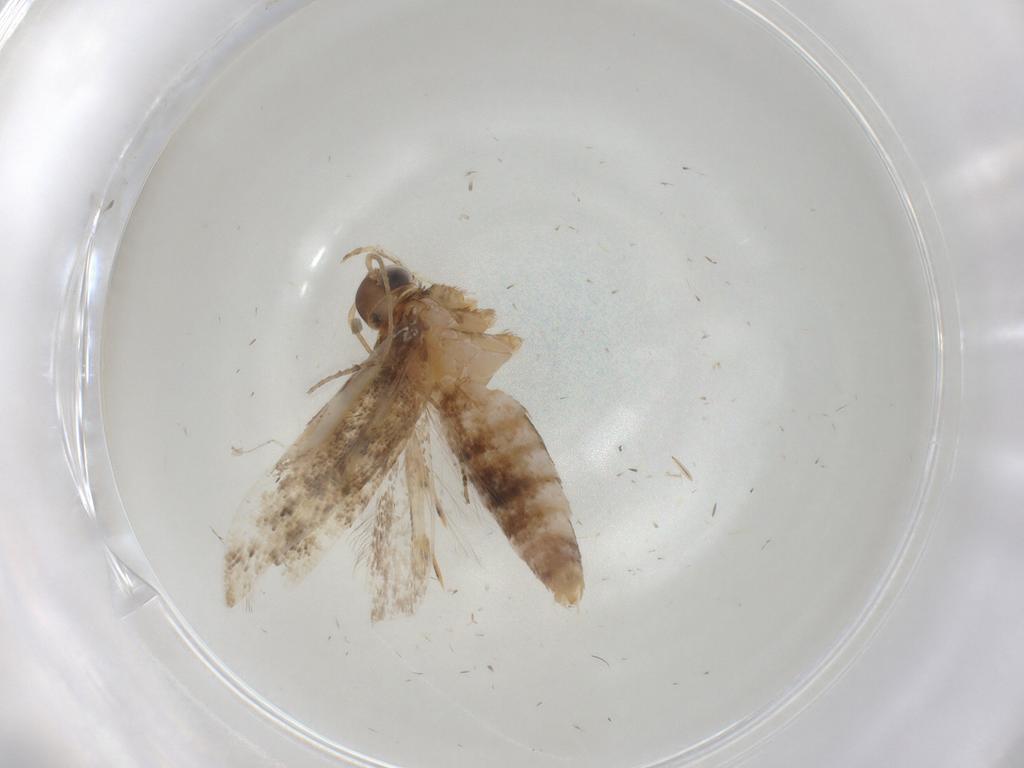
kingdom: Animalia
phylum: Arthropoda
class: Insecta
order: Lepidoptera
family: Gelechiidae
